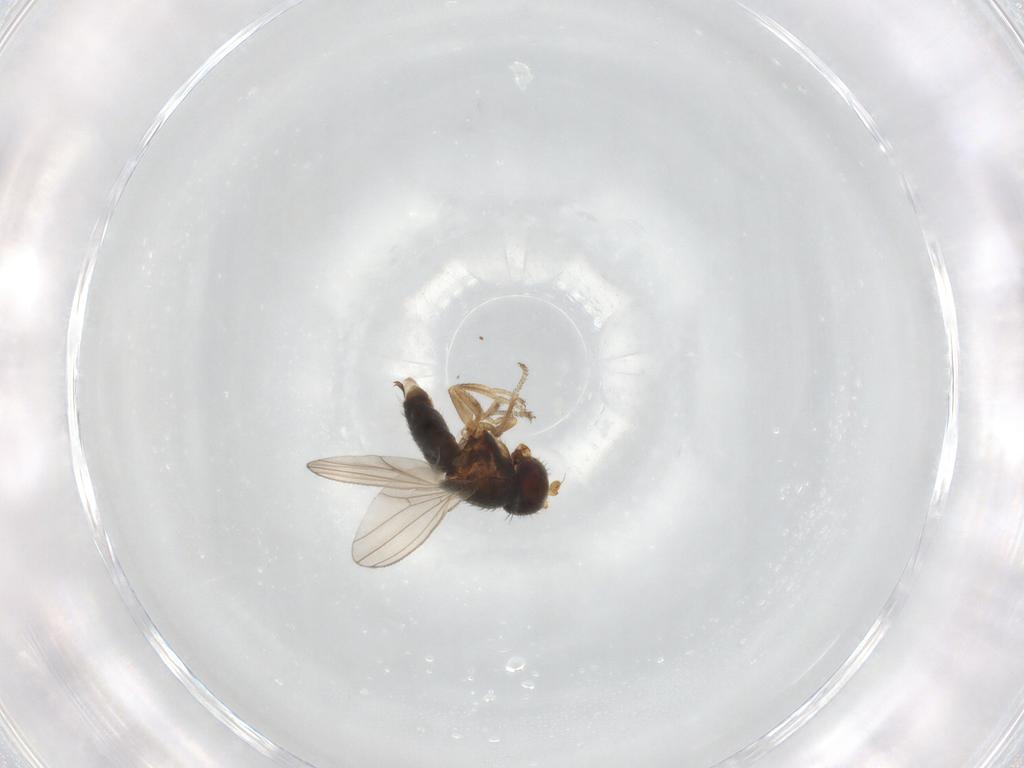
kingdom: Animalia
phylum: Arthropoda
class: Insecta
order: Diptera
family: Ephydridae
